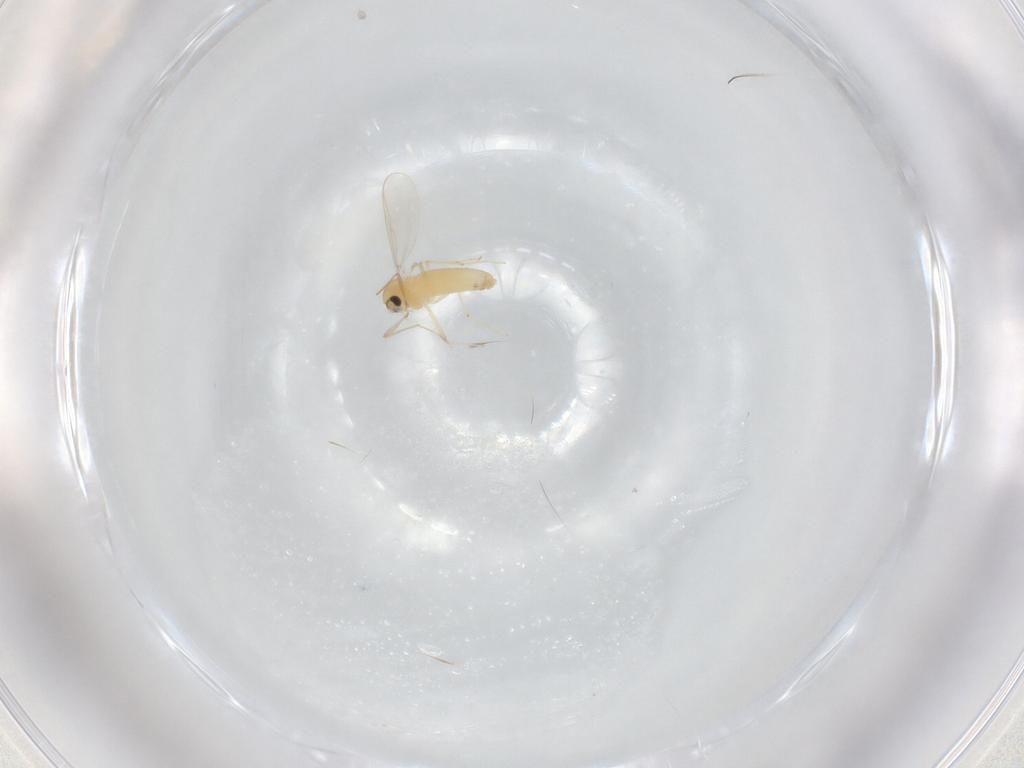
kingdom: Animalia
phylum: Arthropoda
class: Insecta
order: Diptera
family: Chironomidae
